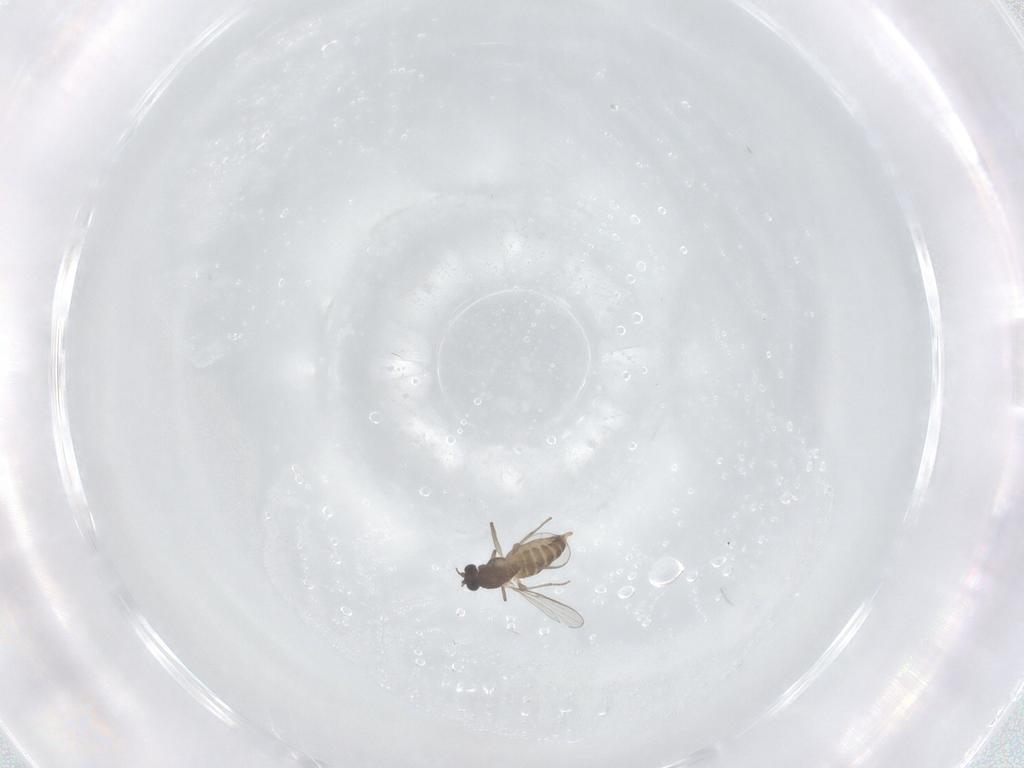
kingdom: Animalia
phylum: Arthropoda
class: Insecta
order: Diptera
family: Chironomidae
